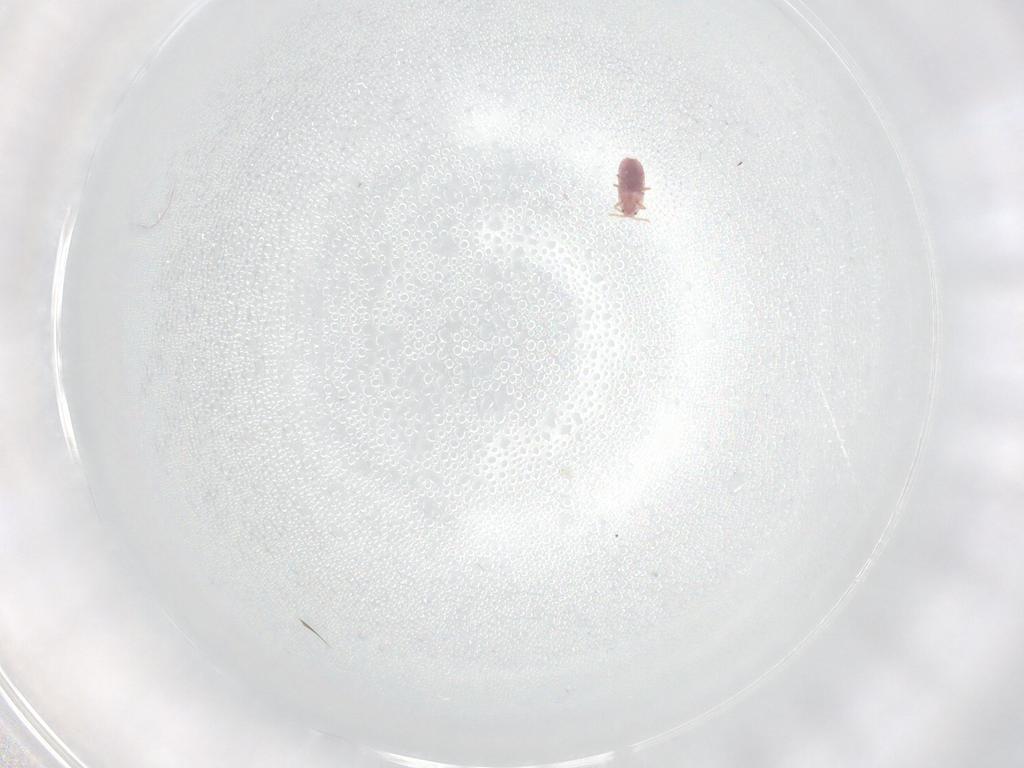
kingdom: Animalia
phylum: Arthropoda
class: Insecta
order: Hemiptera
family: Pseudococcidae
